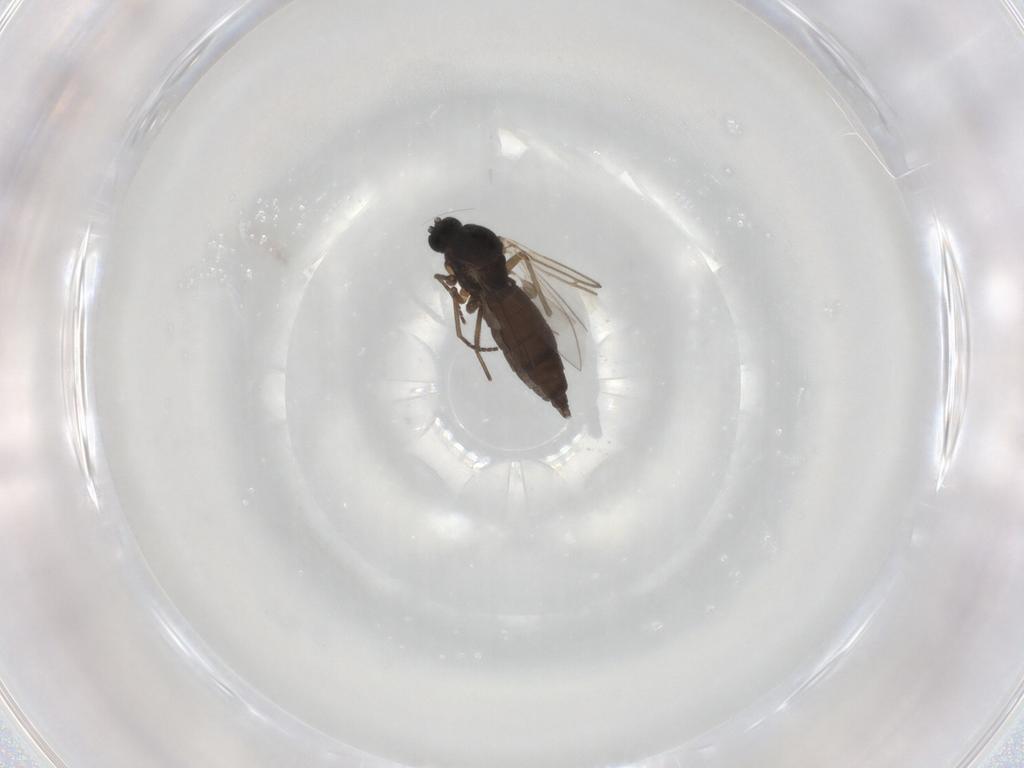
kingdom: Animalia
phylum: Arthropoda
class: Insecta
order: Diptera
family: Sciaridae
